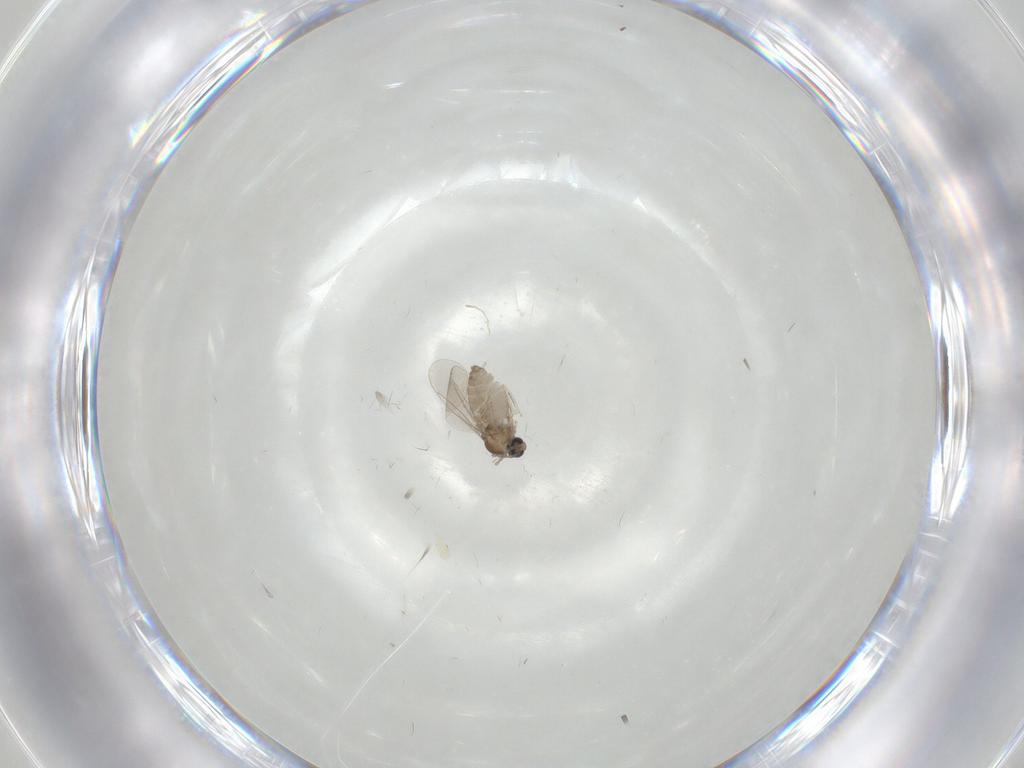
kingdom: Animalia
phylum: Arthropoda
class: Insecta
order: Diptera
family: Cecidomyiidae
